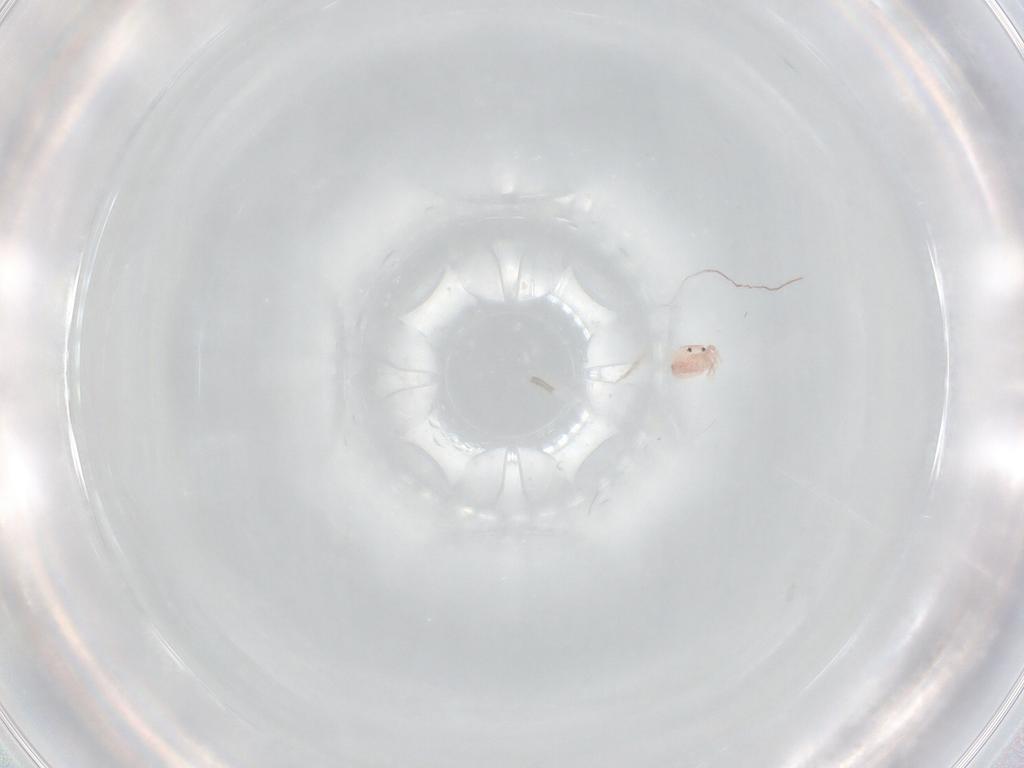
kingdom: Animalia
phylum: Arthropoda
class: Arachnida
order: Trombidiformes
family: Lebertiidae
